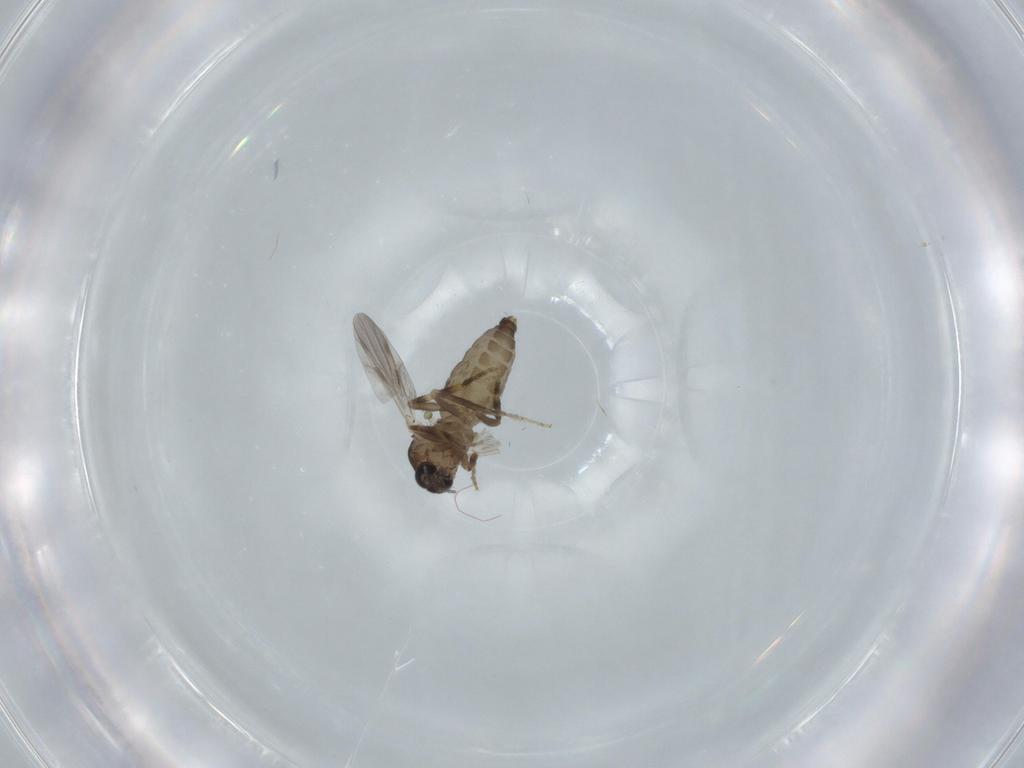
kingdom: Animalia
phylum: Arthropoda
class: Insecta
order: Diptera
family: Ceratopogonidae
